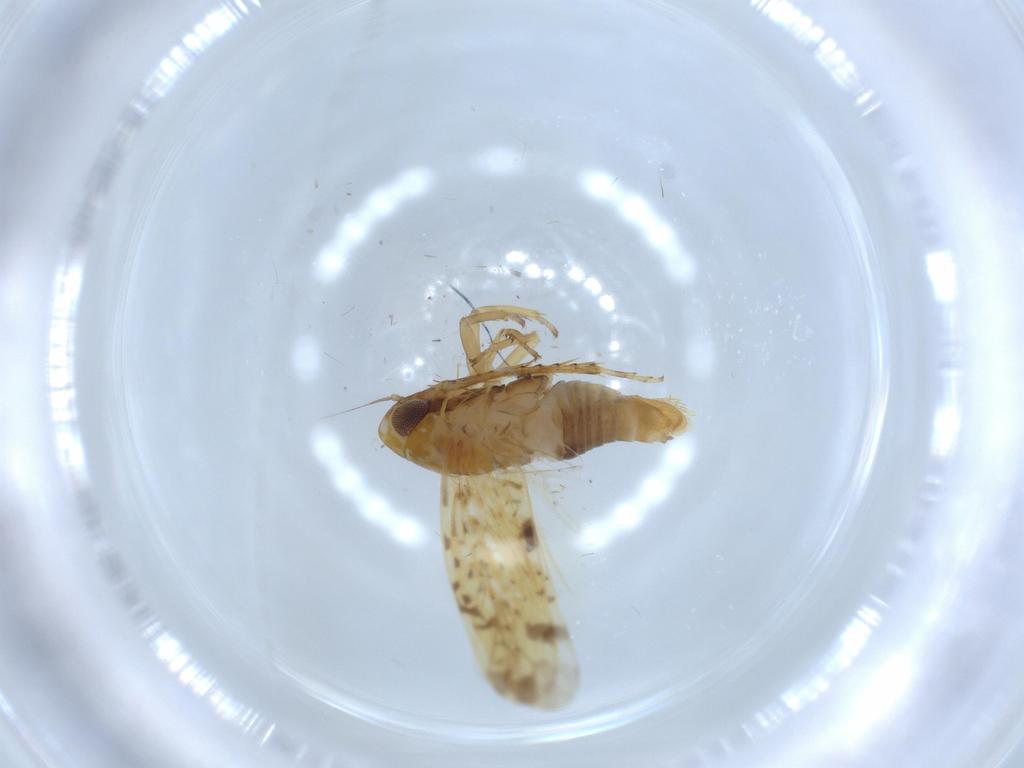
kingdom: Animalia
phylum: Arthropoda
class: Insecta
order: Hemiptera
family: Cicadellidae
